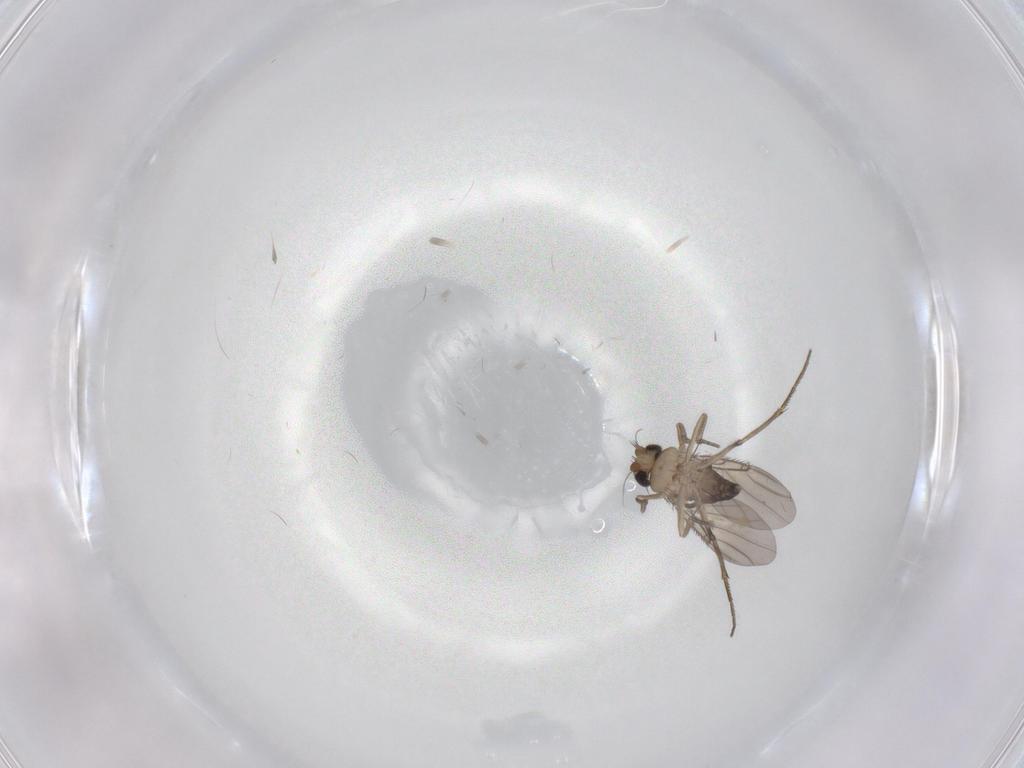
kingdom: Animalia
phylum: Arthropoda
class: Insecta
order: Diptera
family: Phoridae
